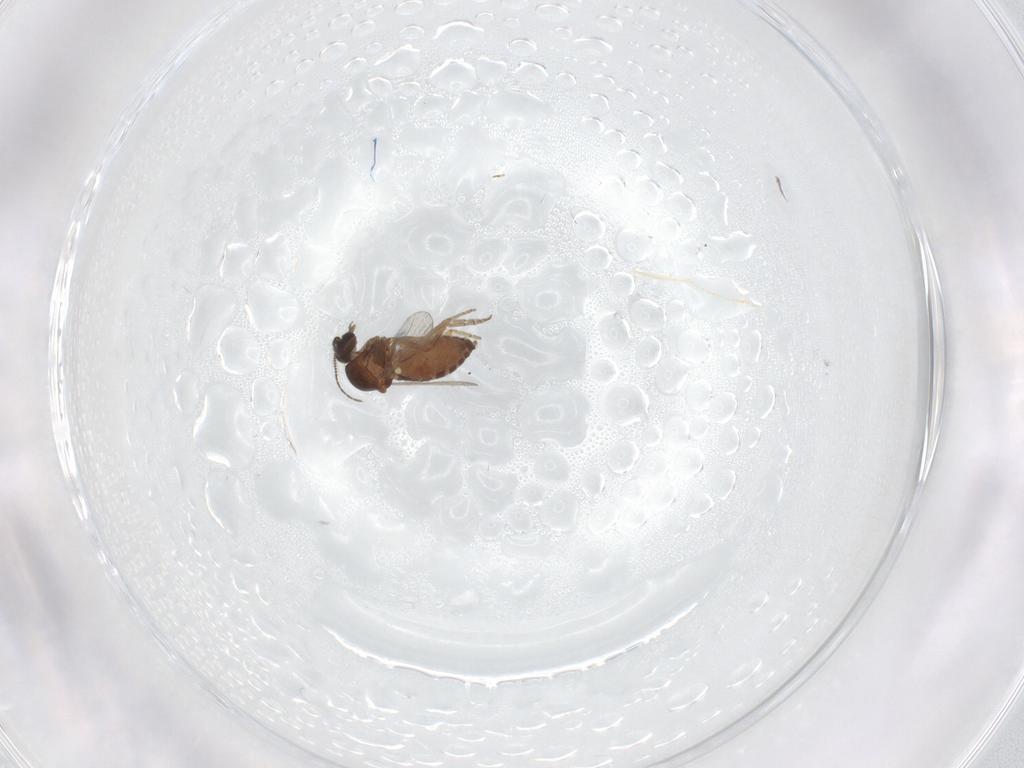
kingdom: Animalia
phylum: Arthropoda
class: Insecta
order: Diptera
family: Ceratopogonidae
